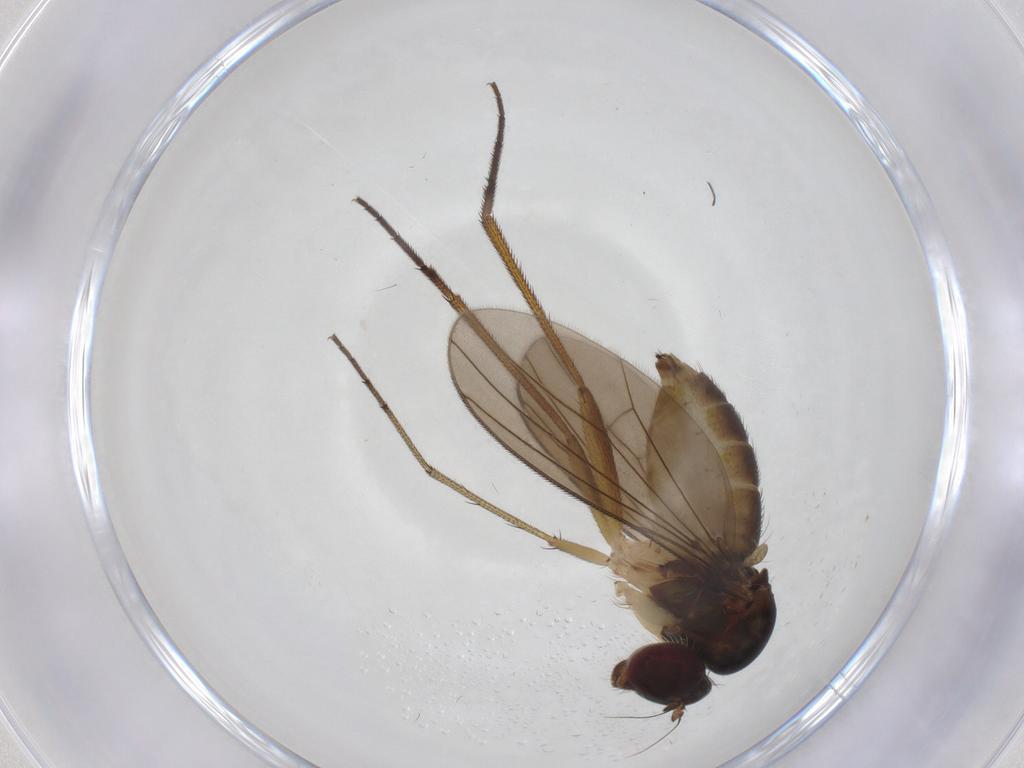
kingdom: Animalia
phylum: Arthropoda
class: Insecta
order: Diptera
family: Dolichopodidae
